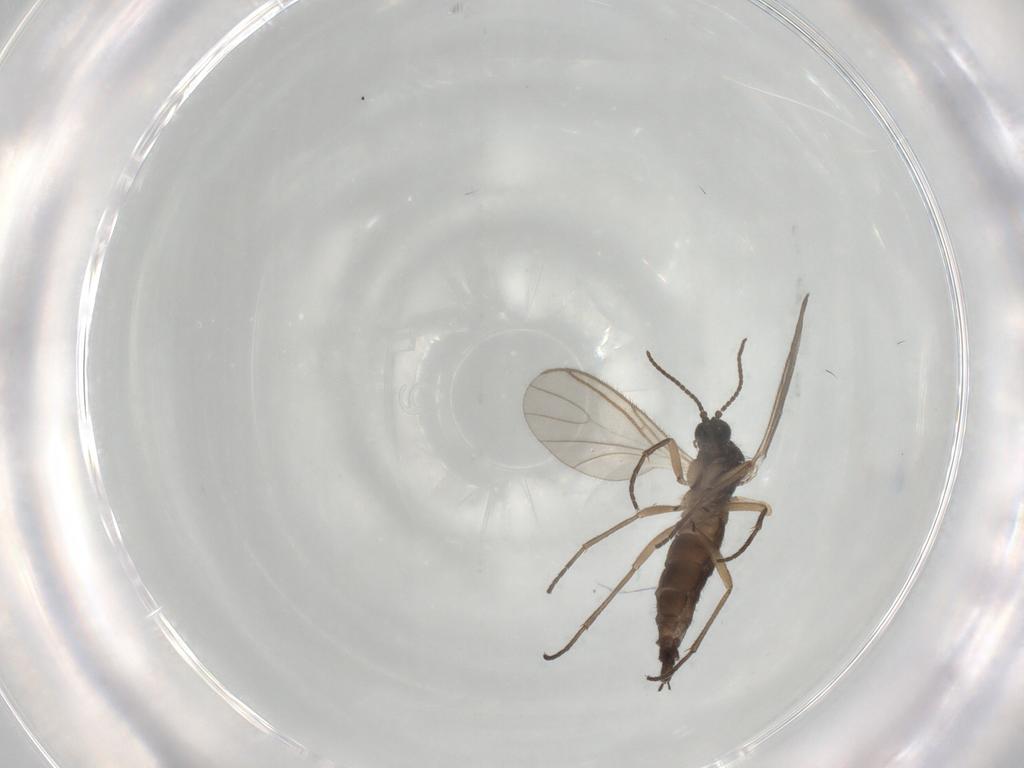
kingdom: Animalia
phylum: Arthropoda
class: Insecta
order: Diptera
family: Sciaridae
